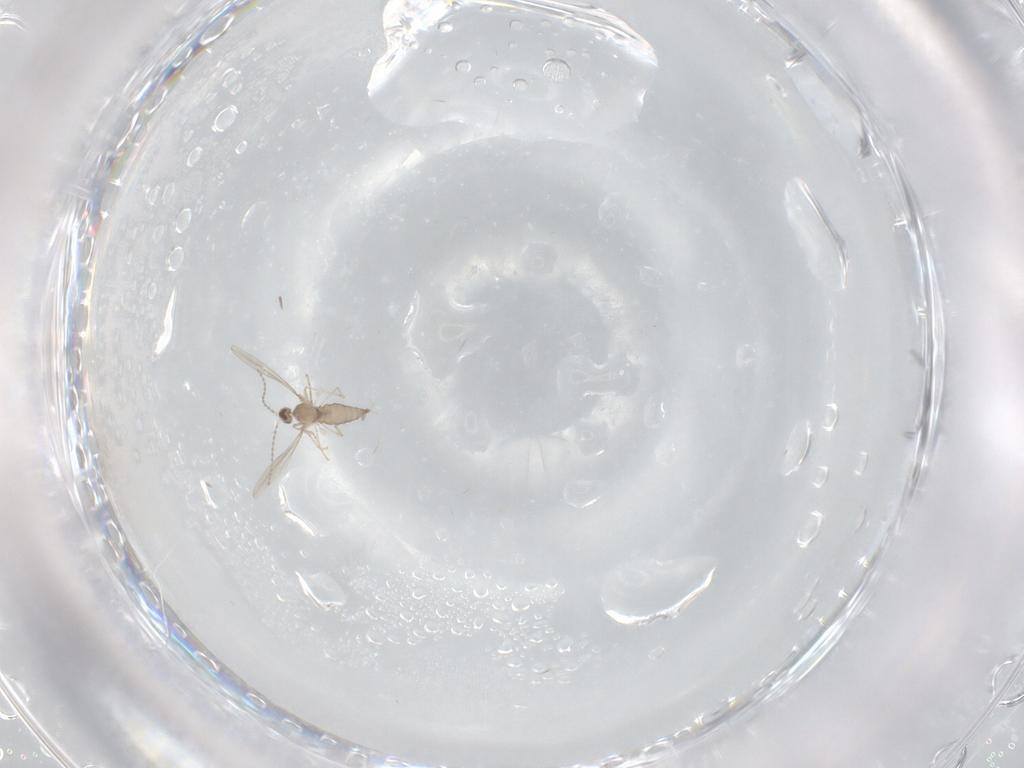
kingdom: Animalia
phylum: Arthropoda
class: Insecta
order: Diptera
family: Cecidomyiidae
